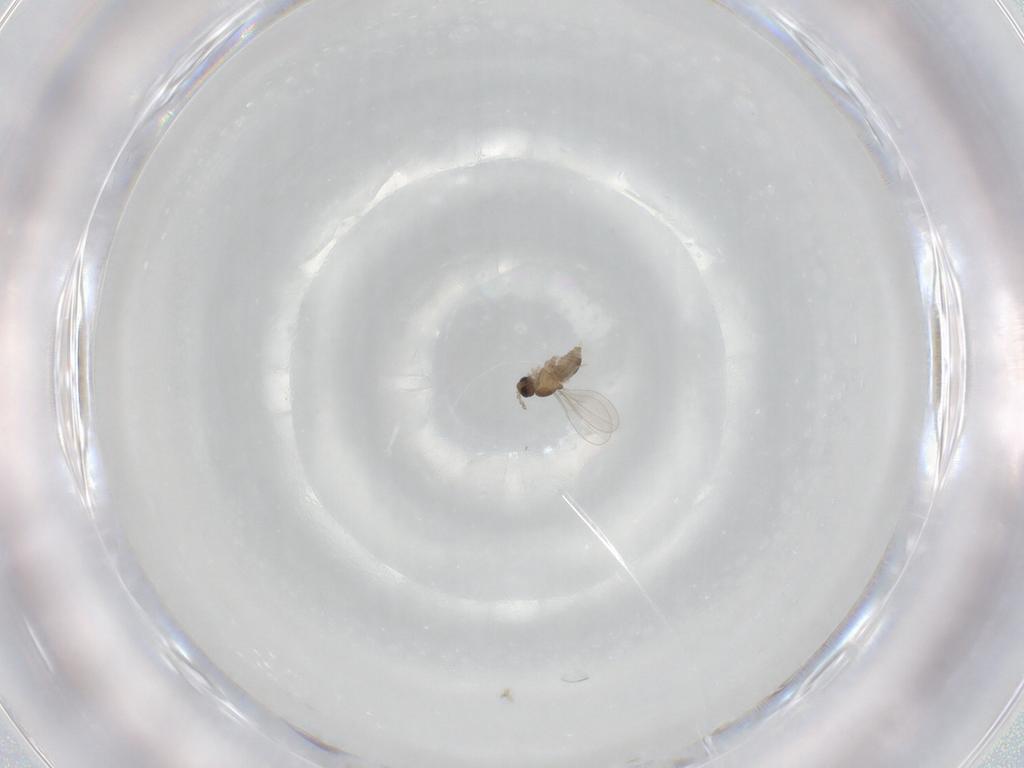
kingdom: Animalia
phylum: Arthropoda
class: Insecta
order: Diptera
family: Cecidomyiidae
